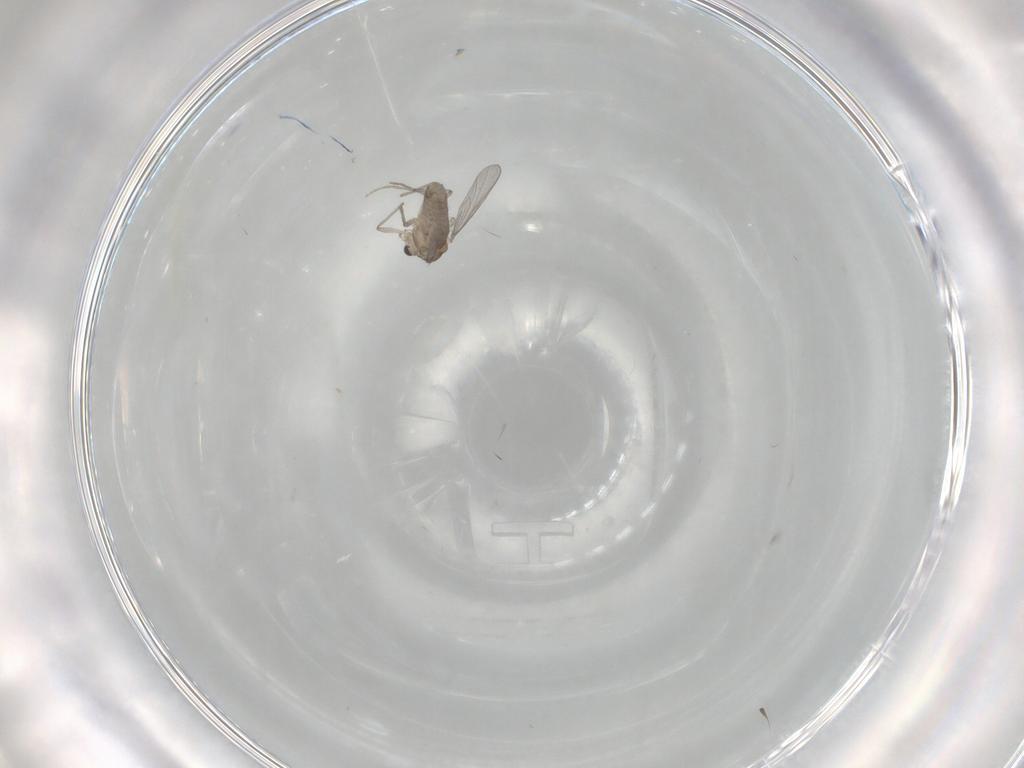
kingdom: Animalia
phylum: Arthropoda
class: Insecta
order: Diptera
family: Chironomidae
